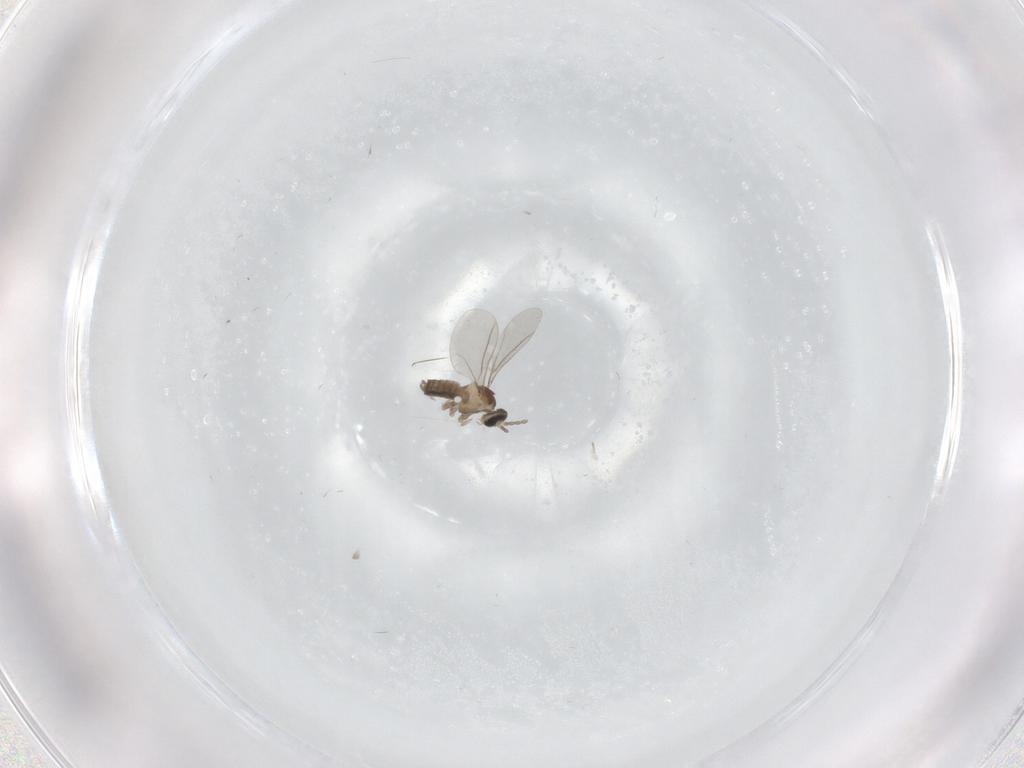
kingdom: Animalia
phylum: Arthropoda
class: Insecta
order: Diptera
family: Cecidomyiidae
